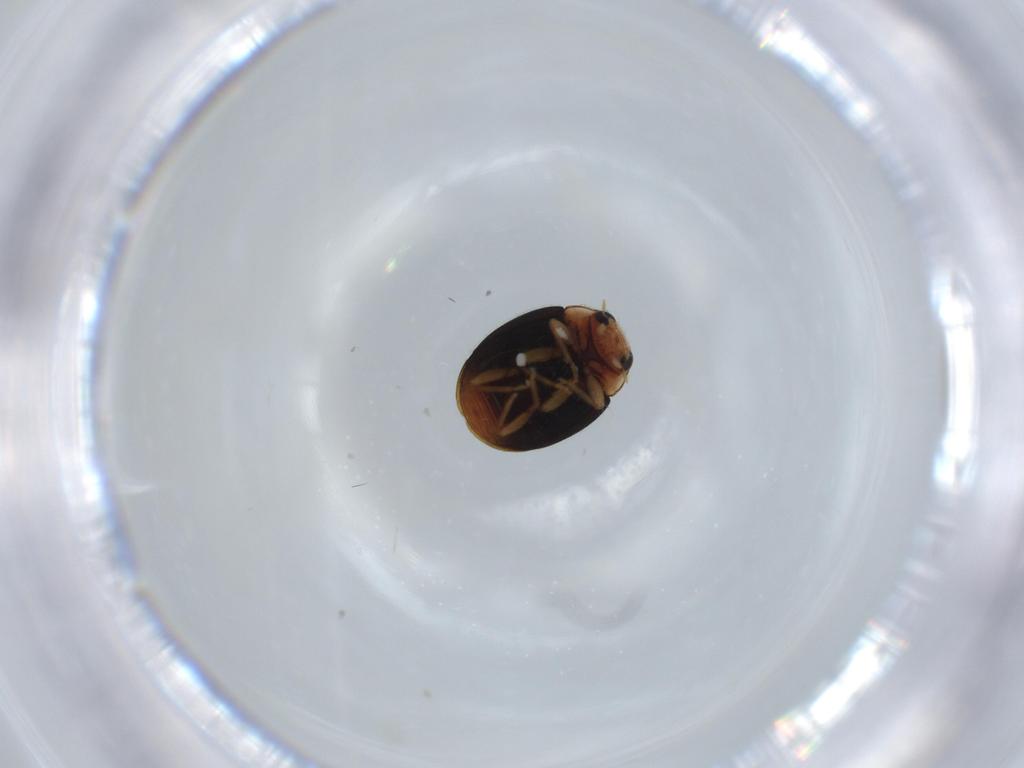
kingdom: Animalia
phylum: Arthropoda
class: Insecta
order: Coleoptera
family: Coccinellidae
